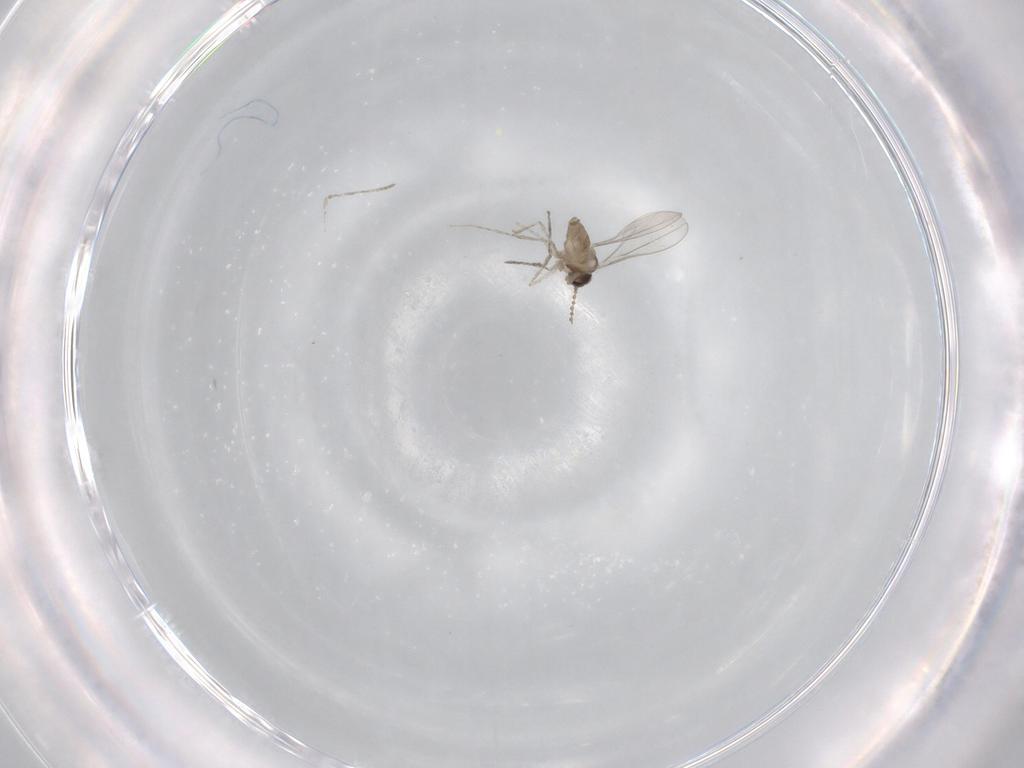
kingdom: Animalia
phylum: Arthropoda
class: Insecta
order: Diptera
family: Cecidomyiidae
